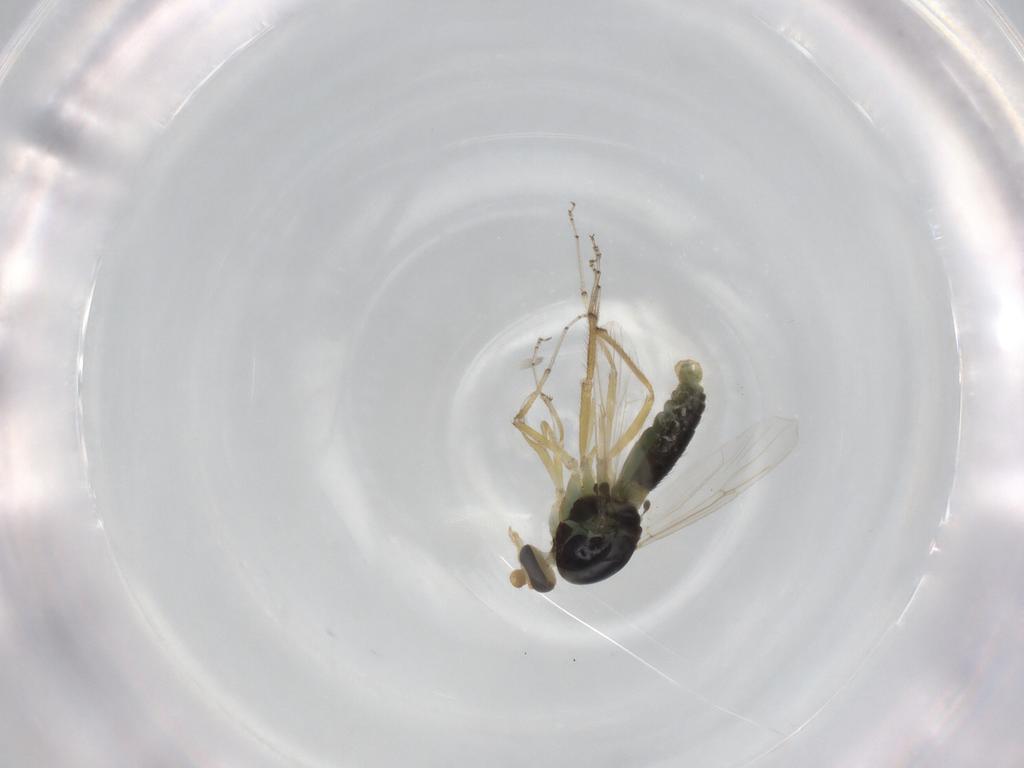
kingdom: Animalia
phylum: Arthropoda
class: Insecta
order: Diptera
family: Ceratopogonidae
